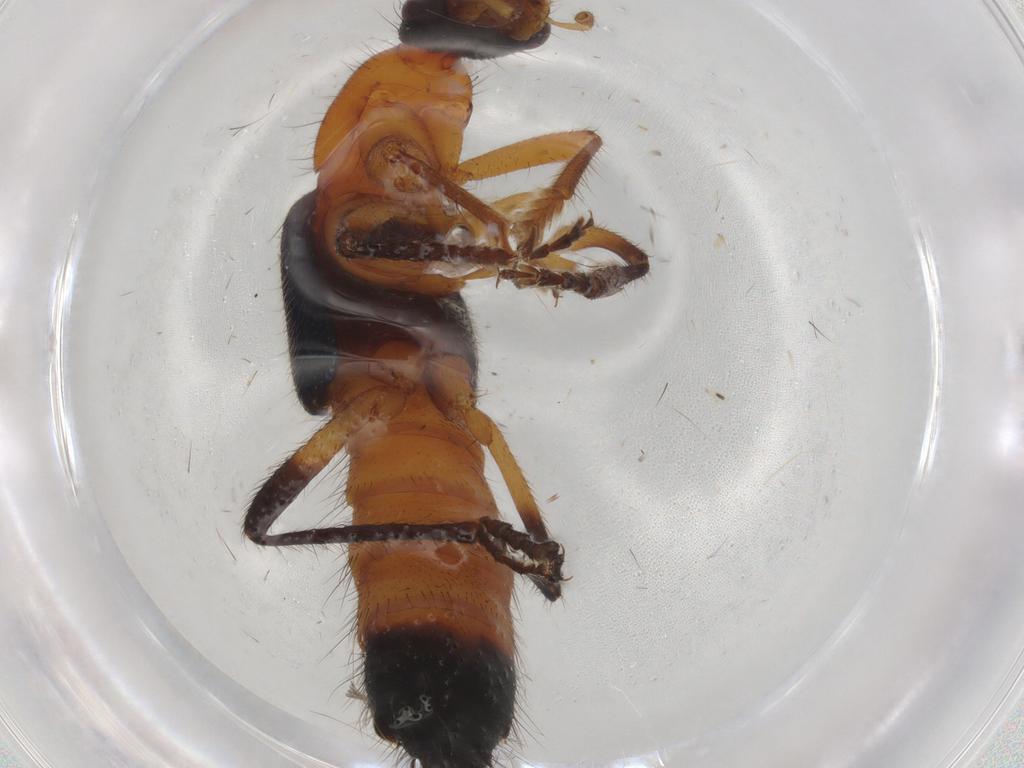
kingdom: Animalia
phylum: Arthropoda
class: Insecta
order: Coleoptera
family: Staphylinidae
